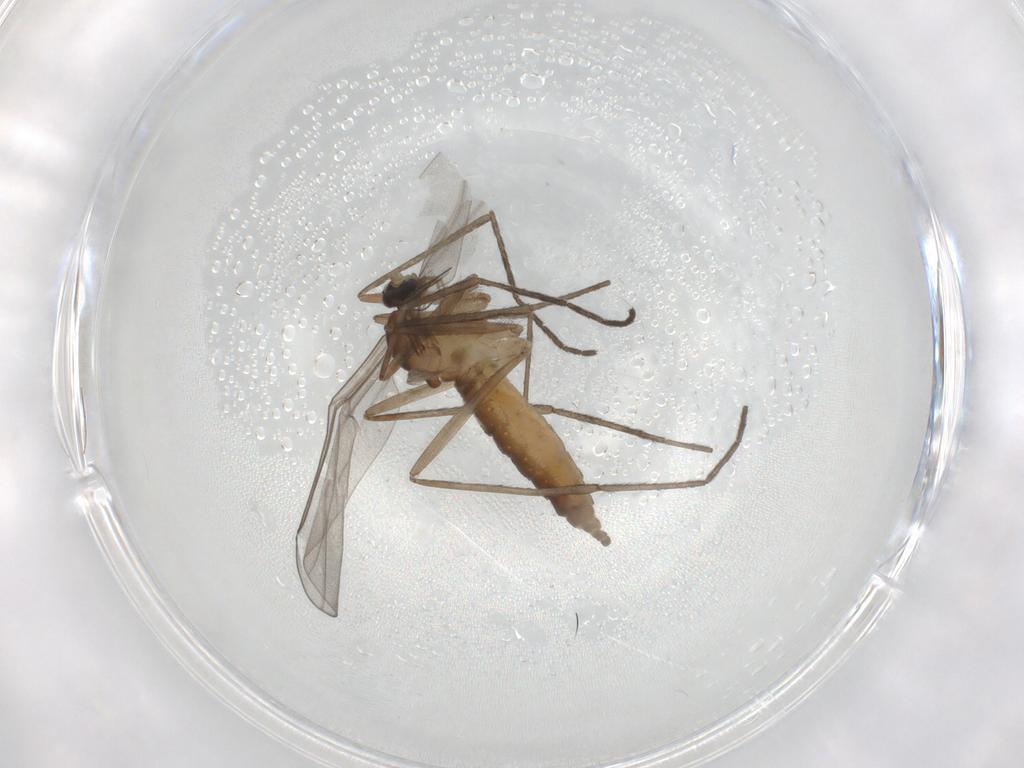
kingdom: Animalia
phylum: Arthropoda
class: Insecta
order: Diptera
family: Cecidomyiidae
